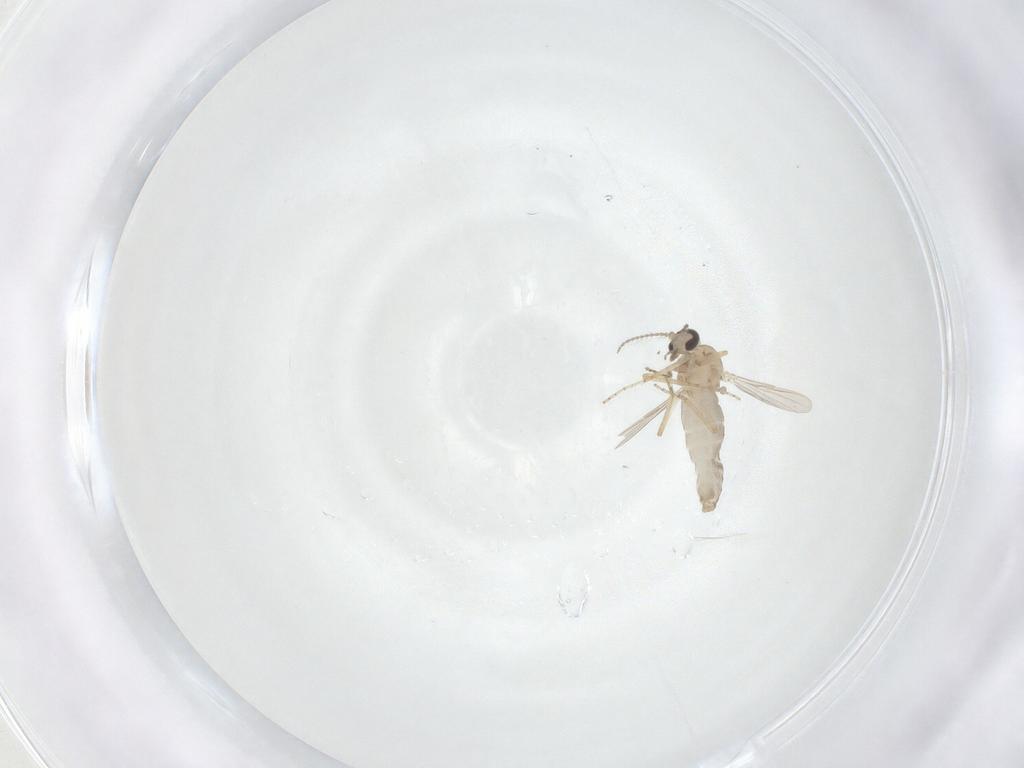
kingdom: Animalia
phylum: Arthropoda
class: Insecta
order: Diptera
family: Ceratopogonidae
